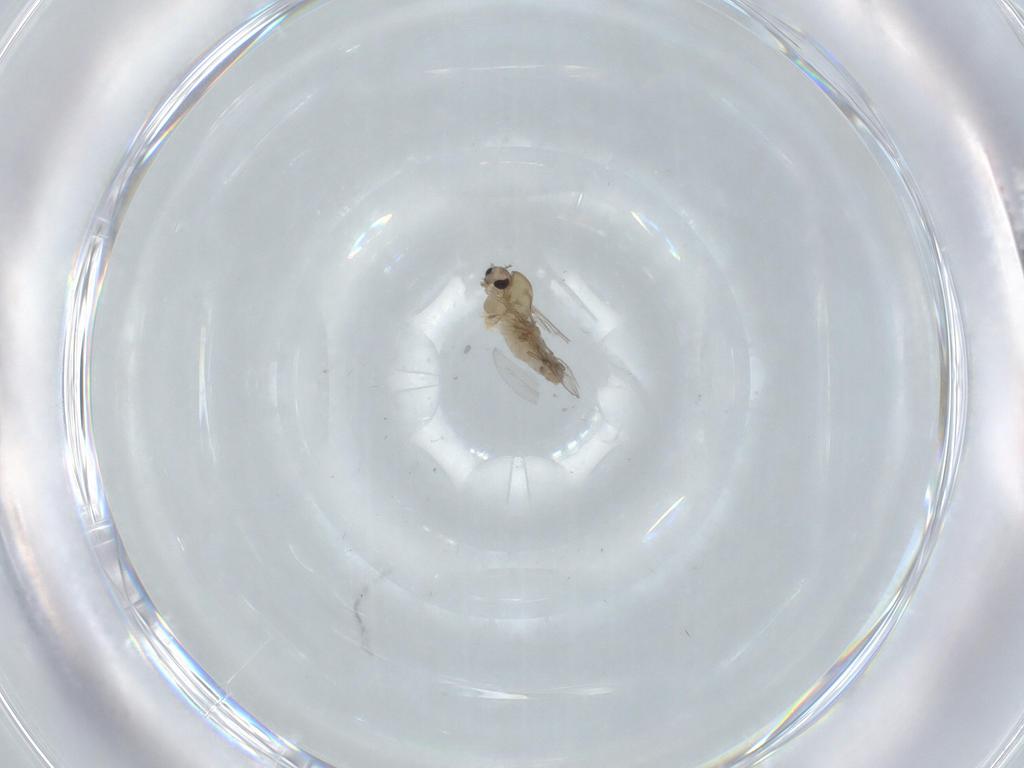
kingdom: Animalia
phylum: Arthropoda
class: Insecta
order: Diptera
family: Chironomidae
